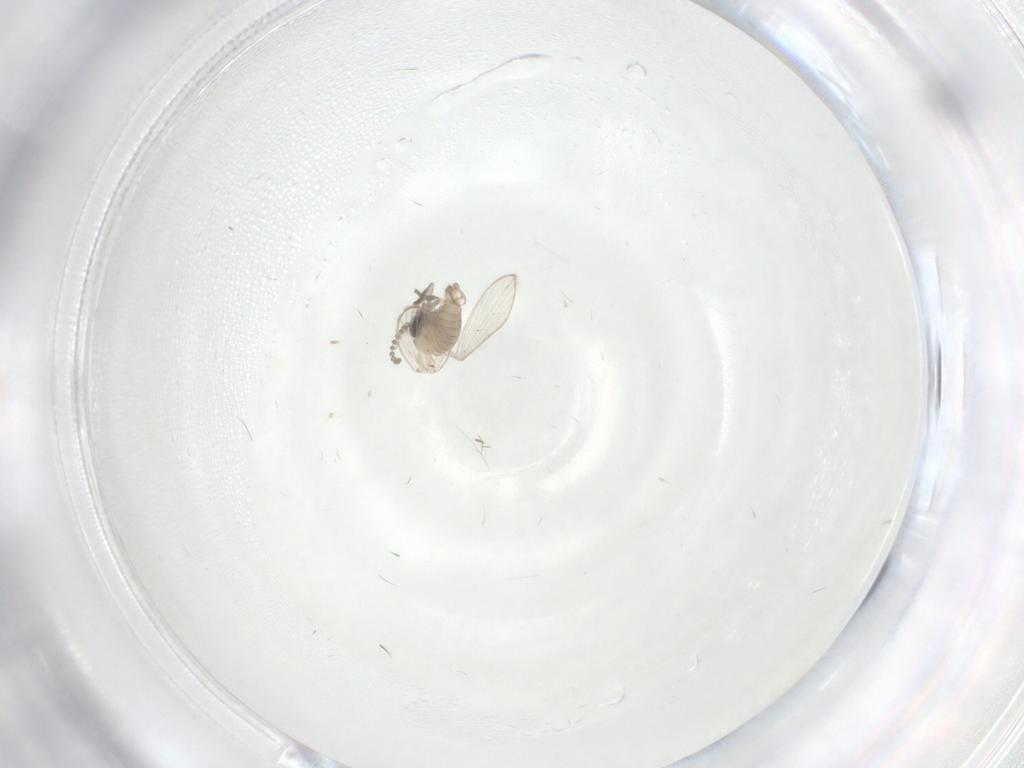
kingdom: Animalia
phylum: Arthropoda
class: Insecta
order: Diptera
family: Psychodidae
